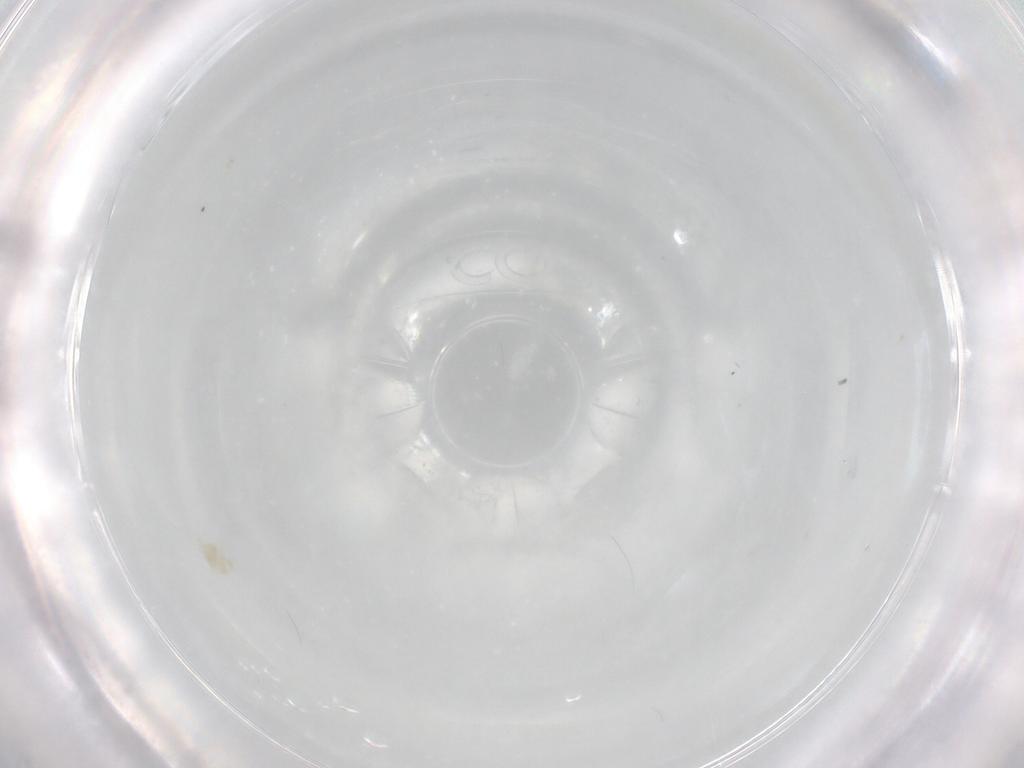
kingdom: Animalia
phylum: Arthropoda
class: Arachnida
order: Trombidiformes
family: Eupodidae
